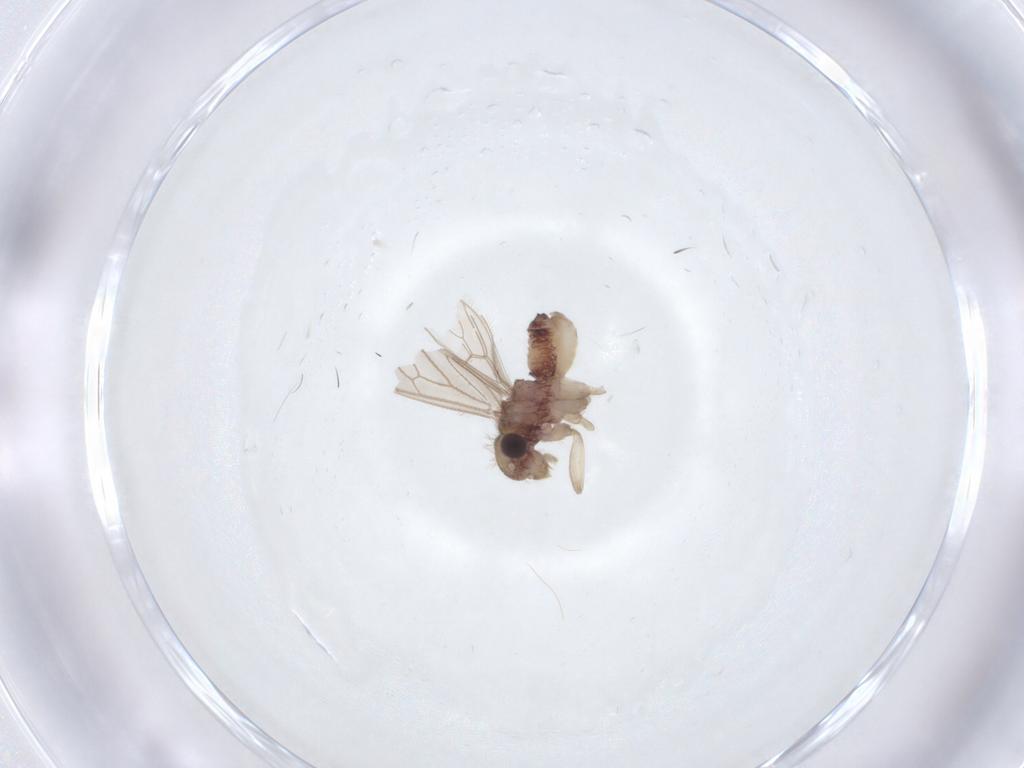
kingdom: Animalia
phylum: Arthropoda
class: Insecta
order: Psocodea
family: Cladiopsocidae
